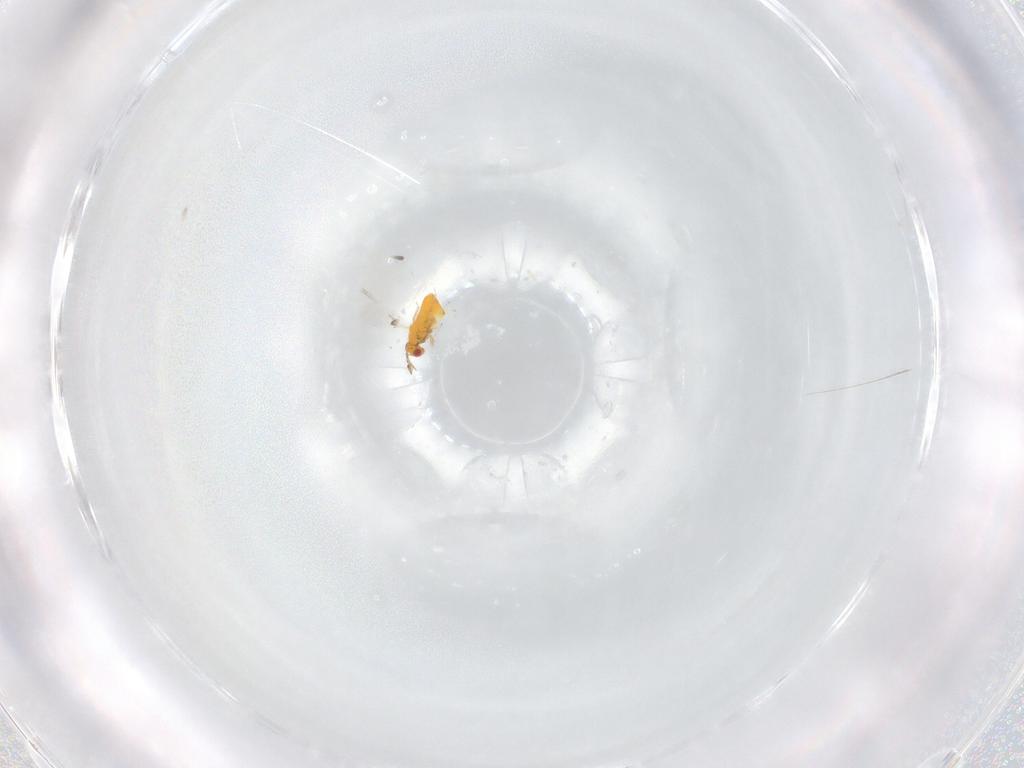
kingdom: Animalia
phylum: Arthropoda
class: Insecta
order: Hymenoptera
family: Trichogrammatidae
